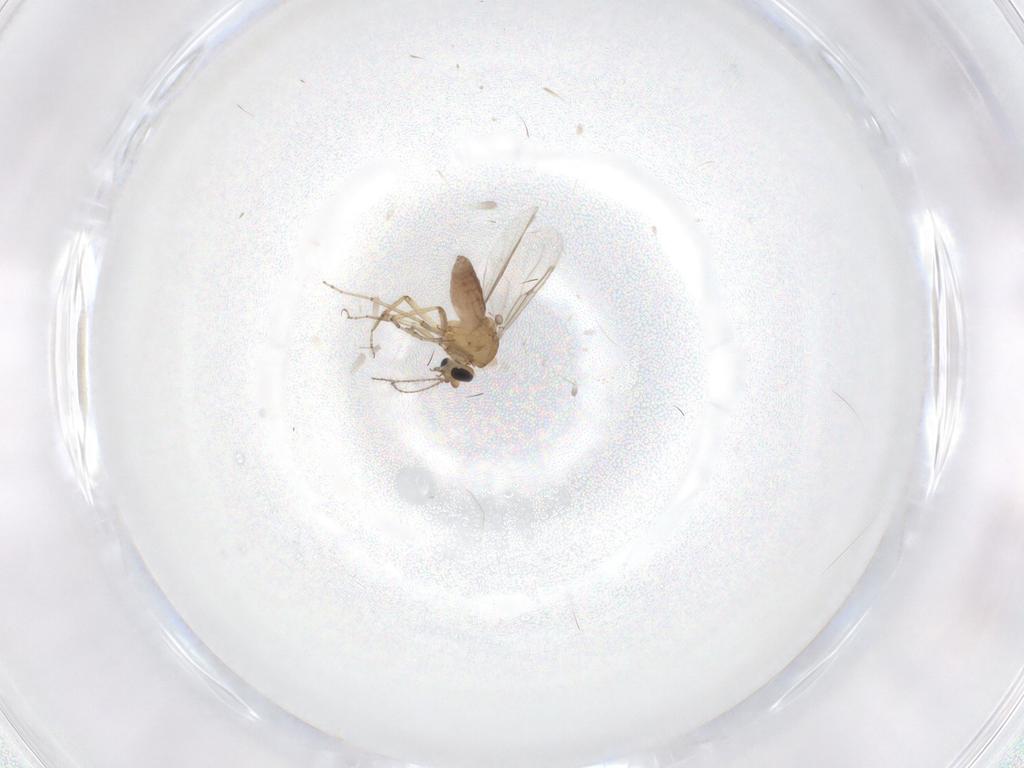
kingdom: Animalia
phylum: Arthropoda
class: Insecta
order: Diptera
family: Ceratopogonidae
